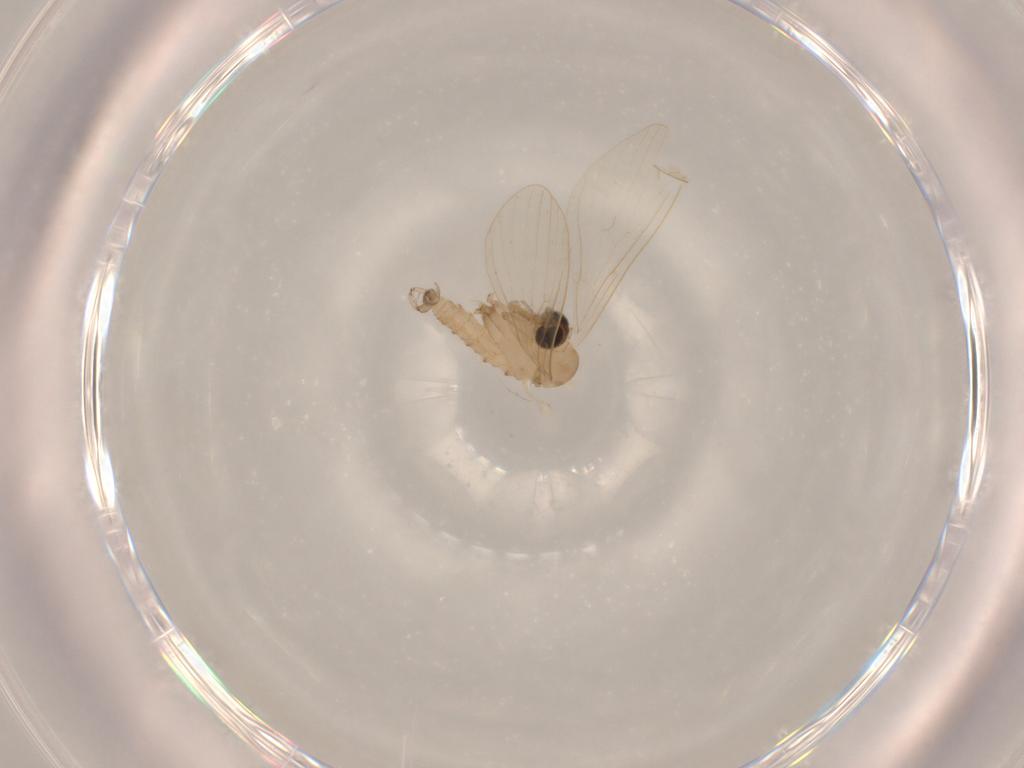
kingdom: Animalia
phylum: Arthropoda
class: Insecta
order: Diptera
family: Psychodidae
